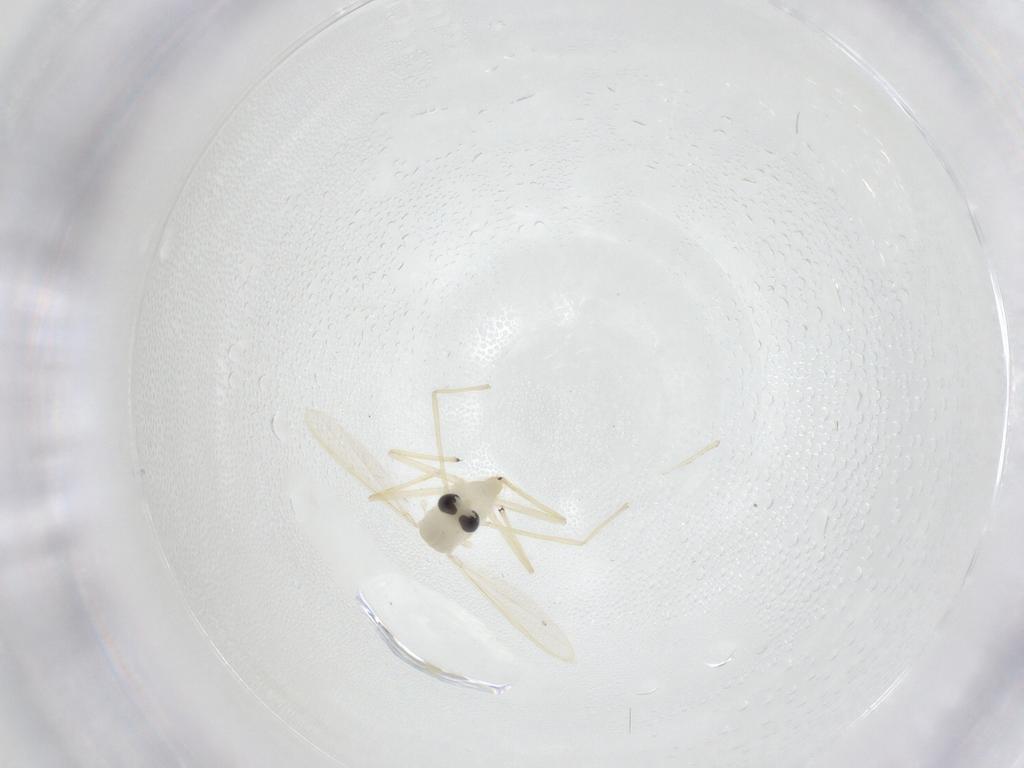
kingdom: Animalia
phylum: Arthropoda
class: Insecta
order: Diptera
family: Chironomidae
